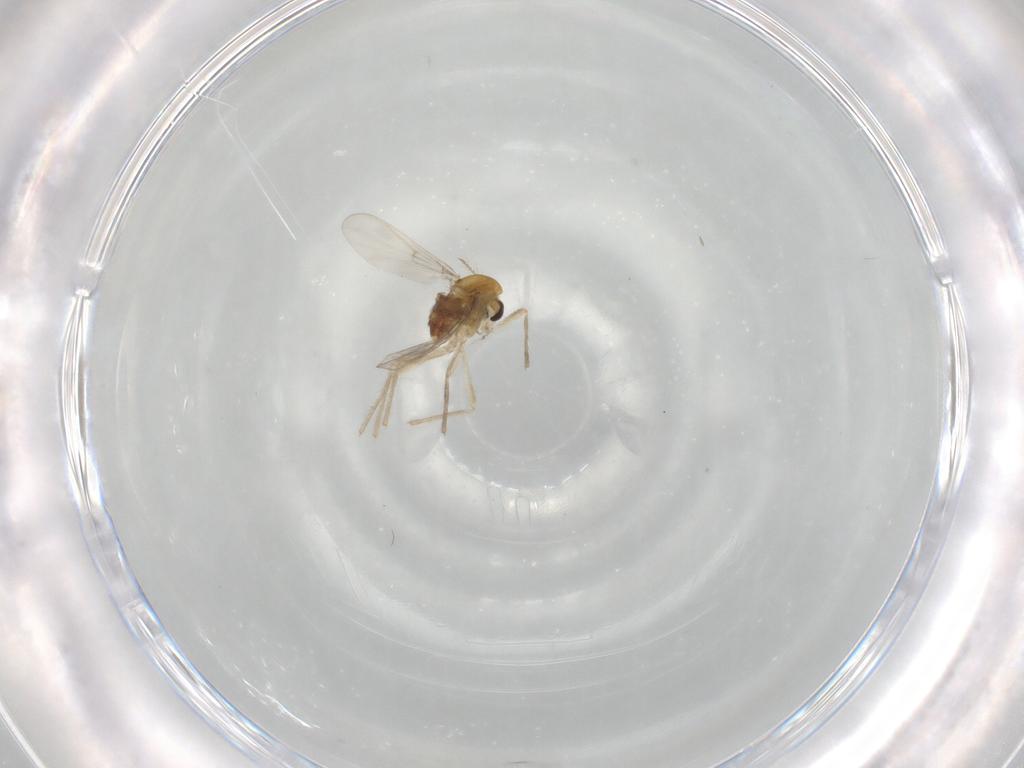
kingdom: Animalia
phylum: Arthropoda
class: Insecta
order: Diptera
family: Chironomidae
